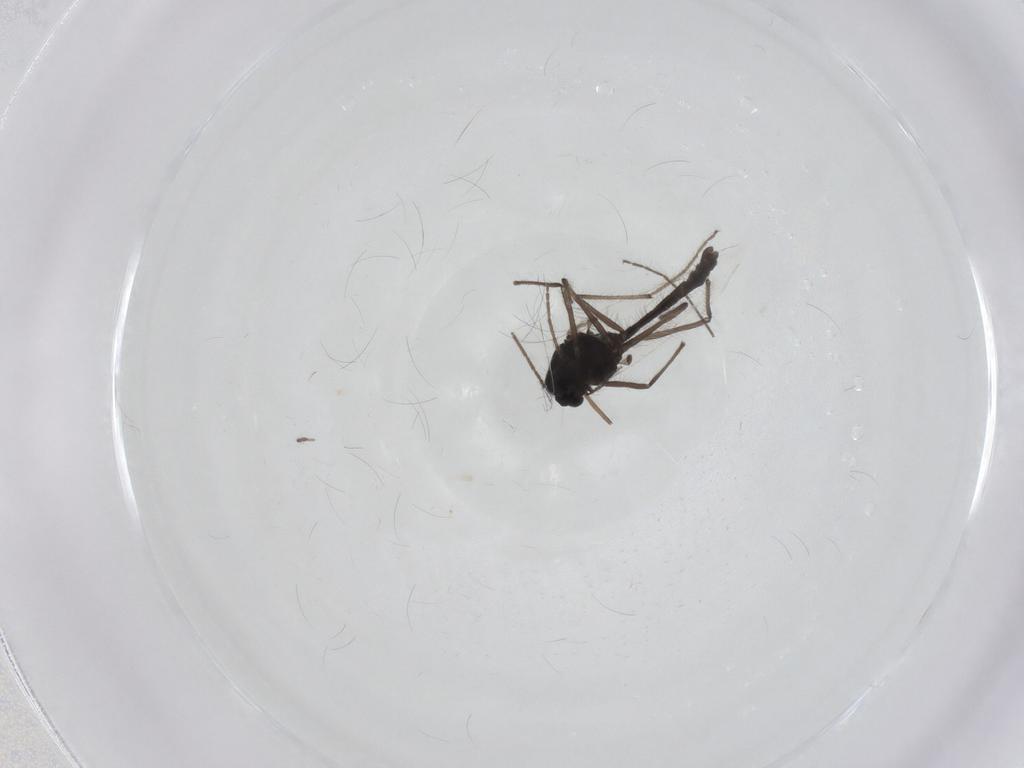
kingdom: Animalia
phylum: Arthropoda
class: Insecta
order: Diptera
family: Chironomidae
